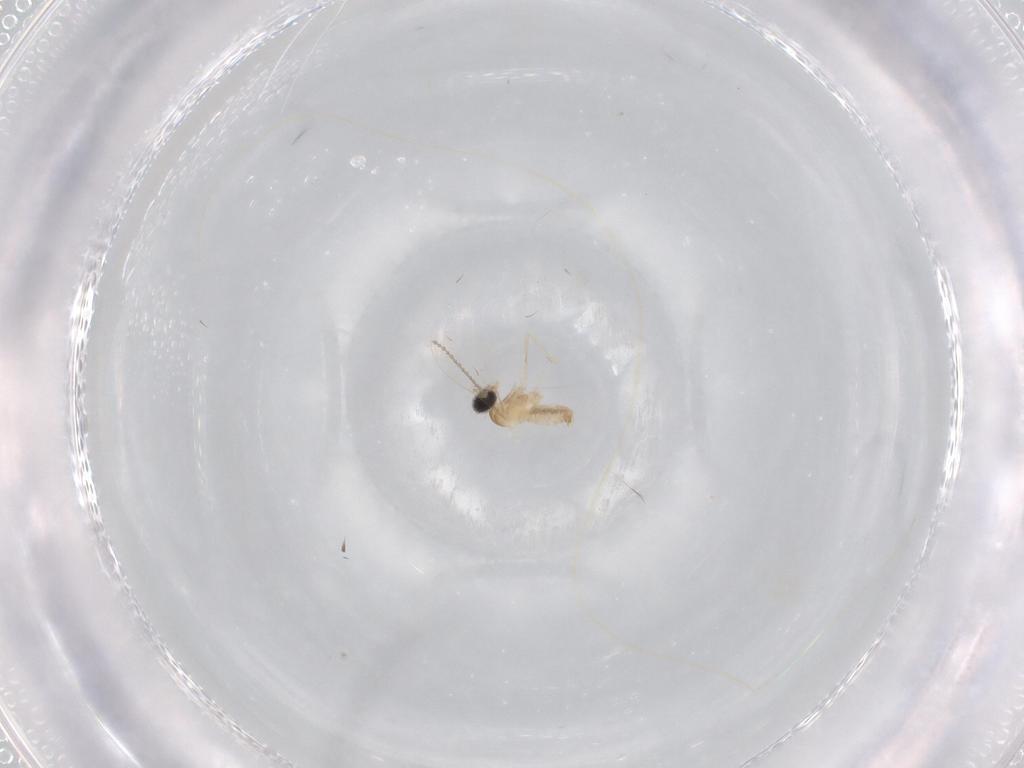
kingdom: Animalia
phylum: Arthropoda
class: Insecta
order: Diptera
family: Cecidomyiidae
